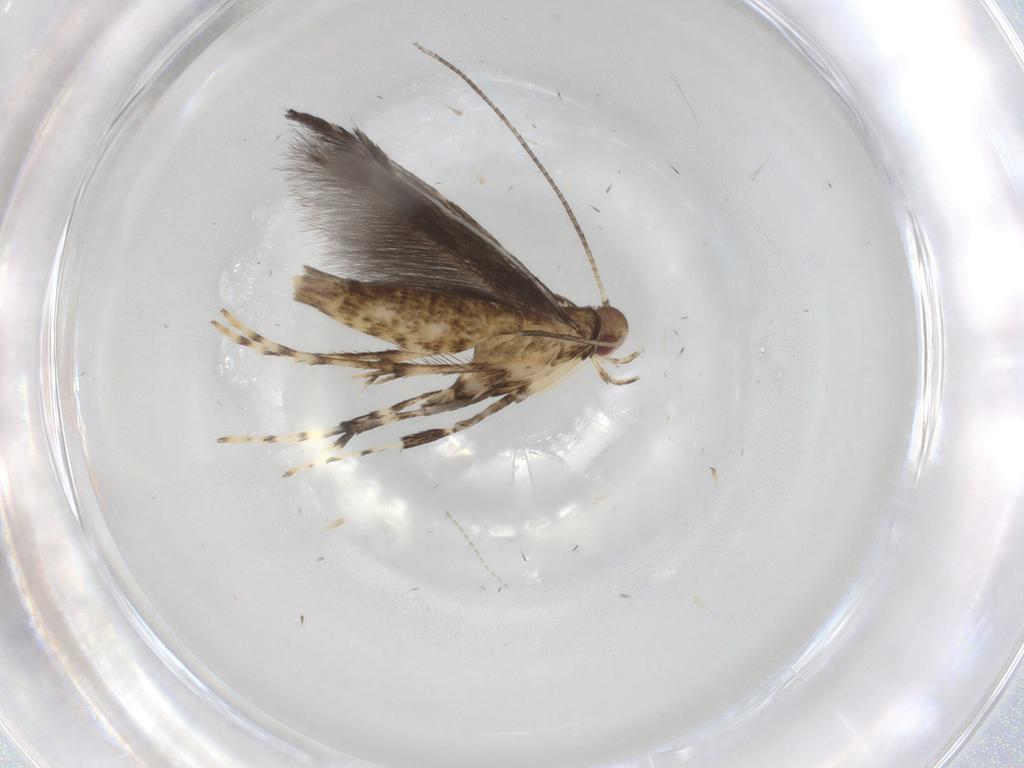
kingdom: Animalia
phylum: Arthropoda
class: Insecta
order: Lepidoptera
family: Gracillariidae
